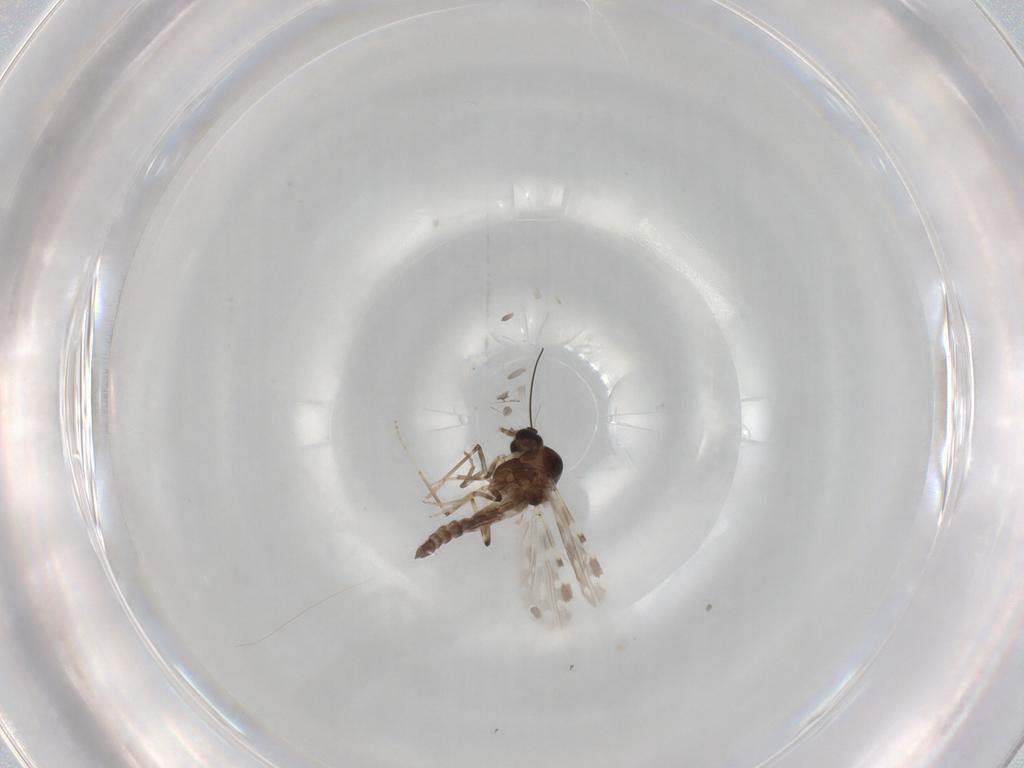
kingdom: Animalia
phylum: Arthropoda
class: Insecta
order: Diptera
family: Ceratopogonidae
